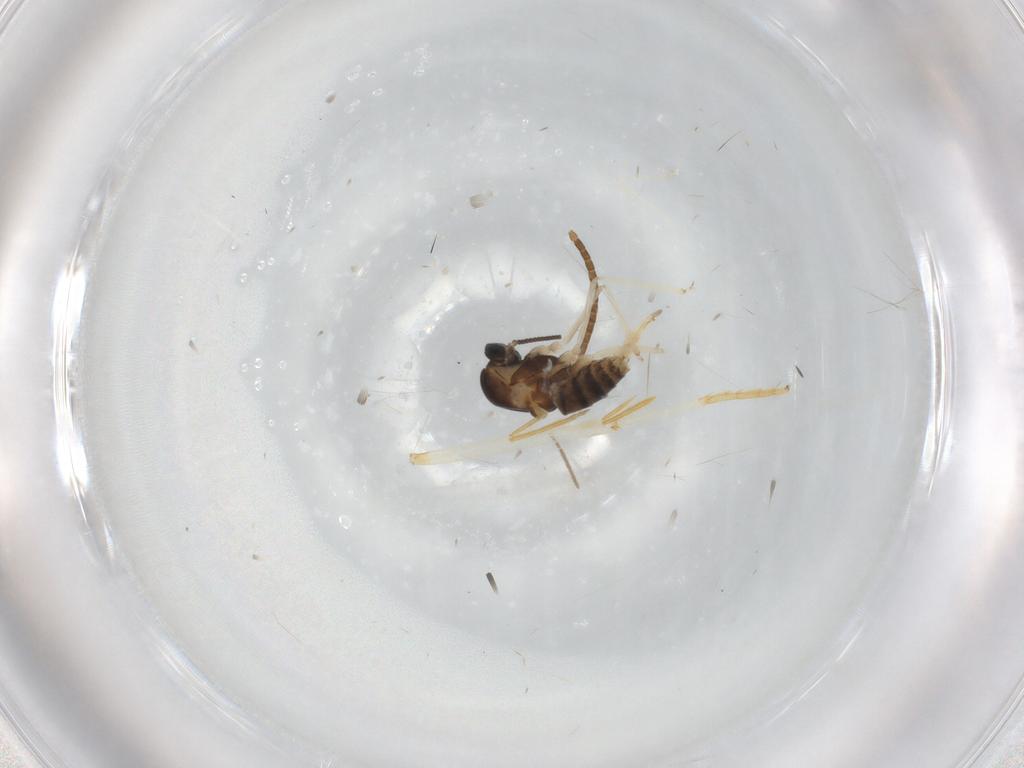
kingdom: Animalia
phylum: Arthropoda
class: Insecta
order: Diptera
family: Cecidomyiidae
